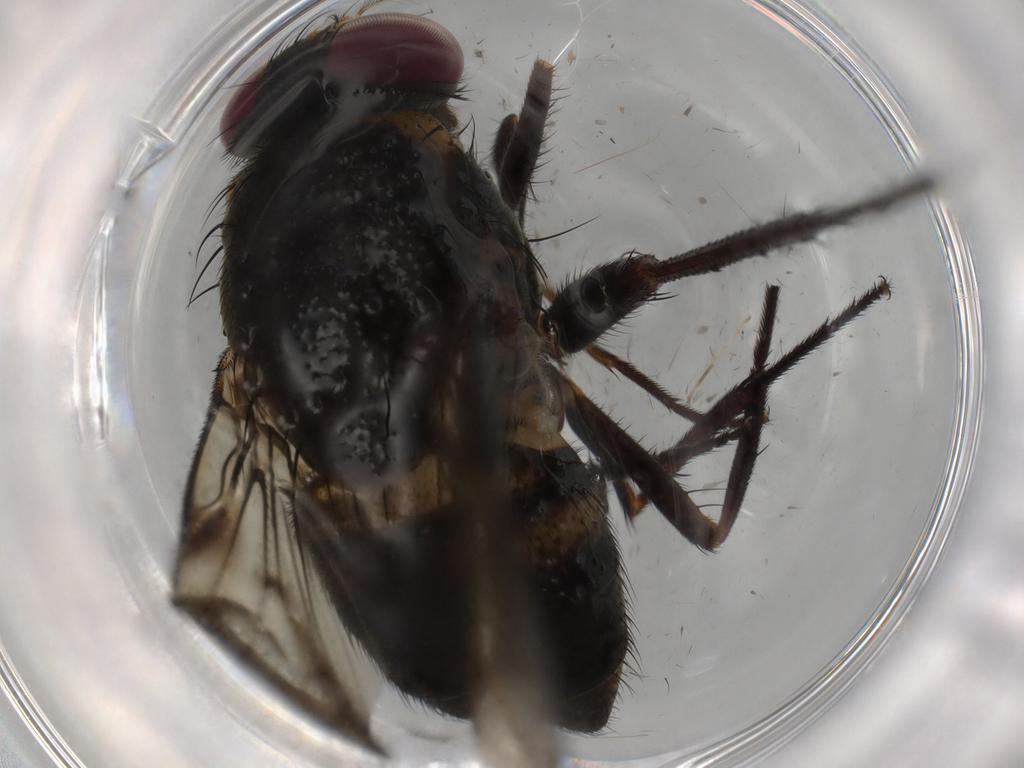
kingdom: Animalia
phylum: Arthropoda
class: Insecta
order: Diptera
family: Muscidae
